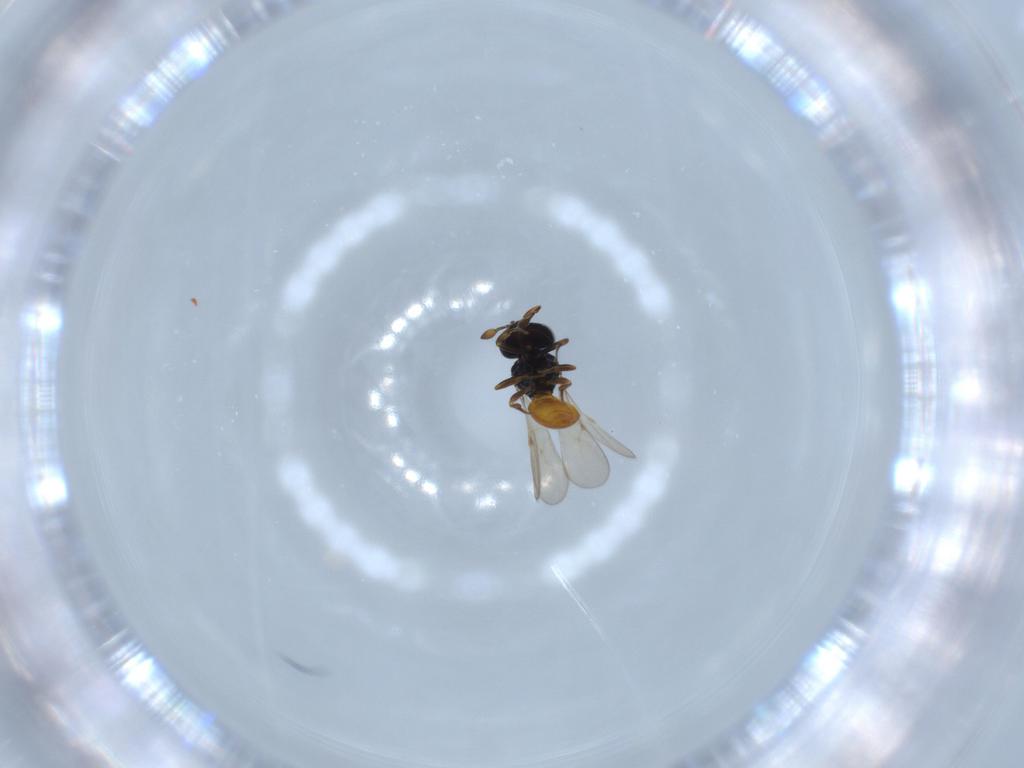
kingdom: Animalia
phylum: Arthropoda
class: Insecta
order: Hymenoptera
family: Scelionidae
